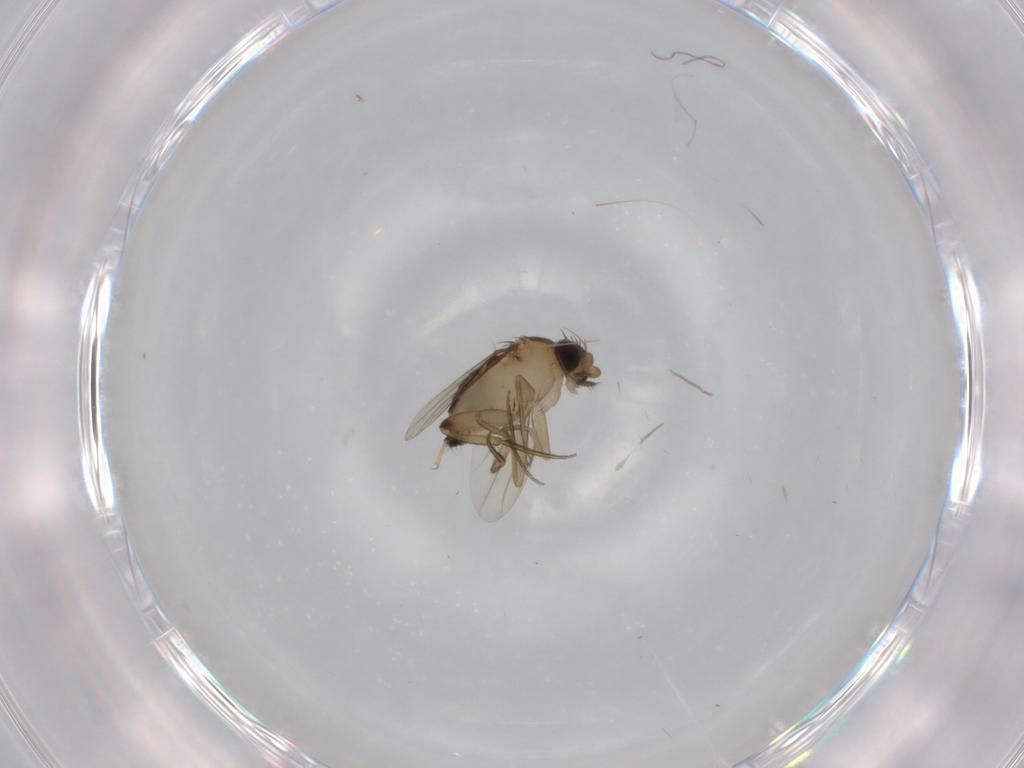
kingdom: Animalia
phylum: Arthropoda
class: Insecta
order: Diptera
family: Phoridae
